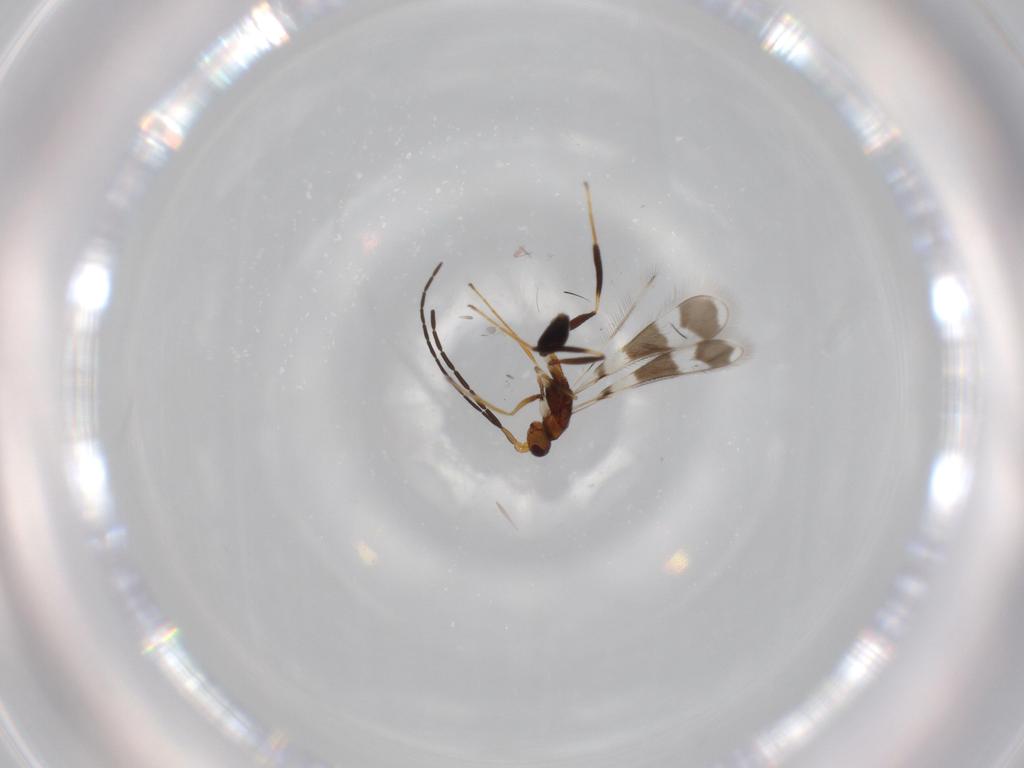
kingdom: Animalia
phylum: Arthropoda
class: Insecta
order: Hymenoptera
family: Mymaridae
